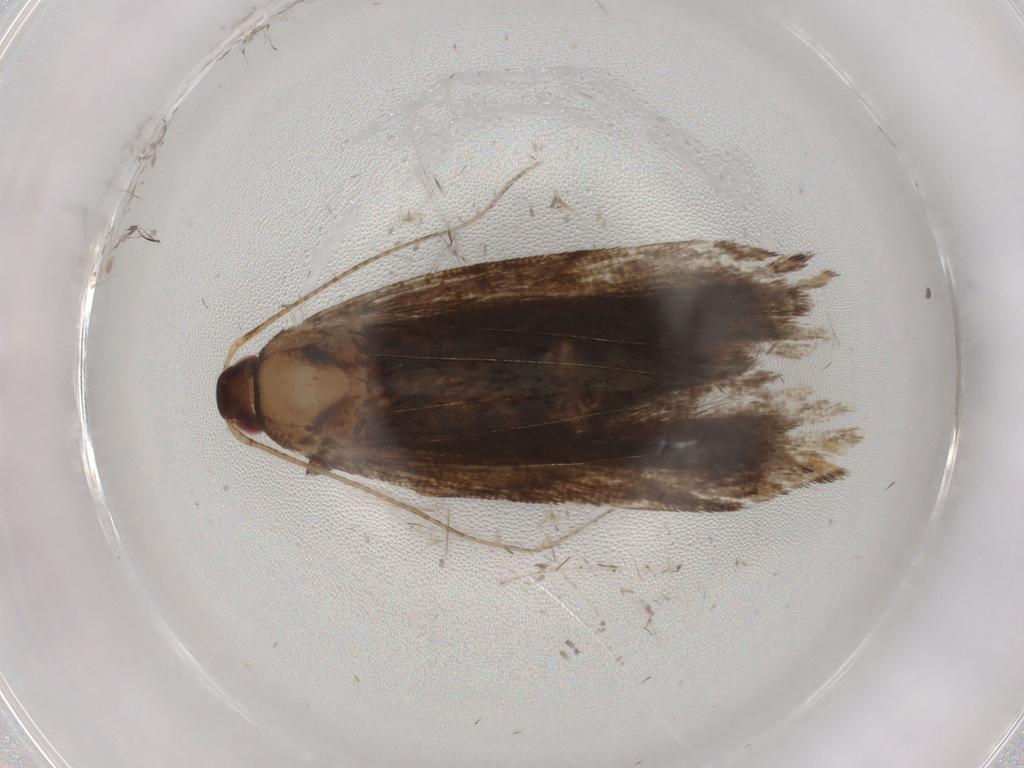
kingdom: Animalia
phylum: Arthropoda
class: Insecta
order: Lepidoptera
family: Gelechiidae
